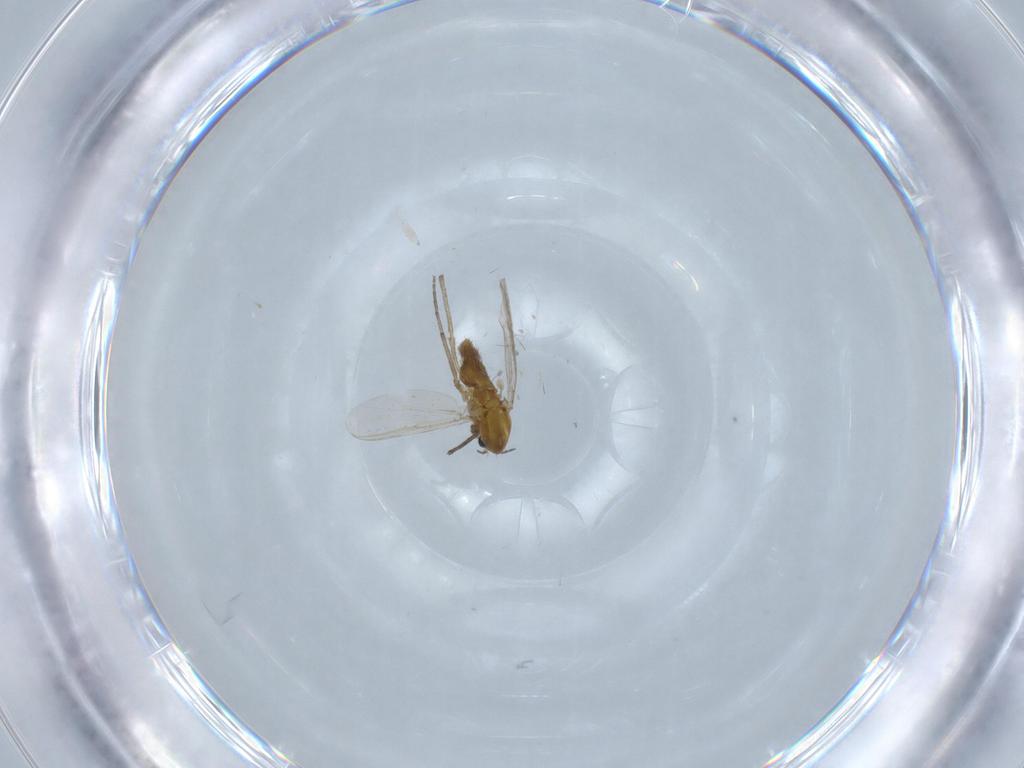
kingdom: Animalia
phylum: Arthropoda
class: Insecta
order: Diptera
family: Chironomidae
